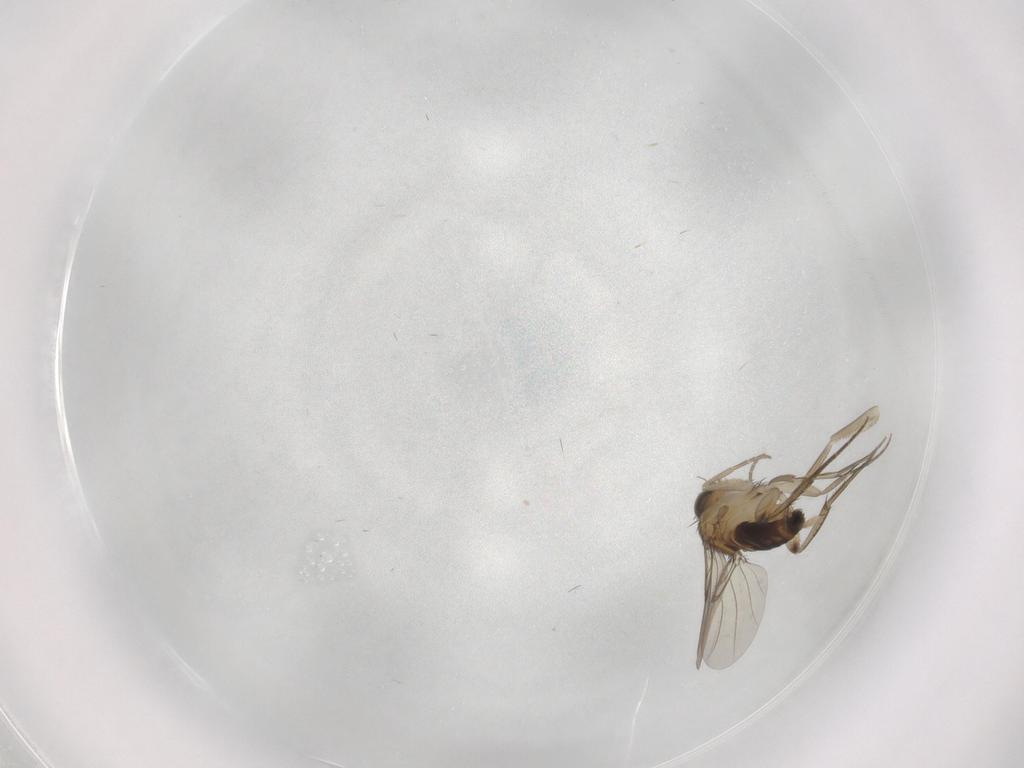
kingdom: Animalia
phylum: Arthropoda
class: Insecta
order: Diptera
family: Phoridae
